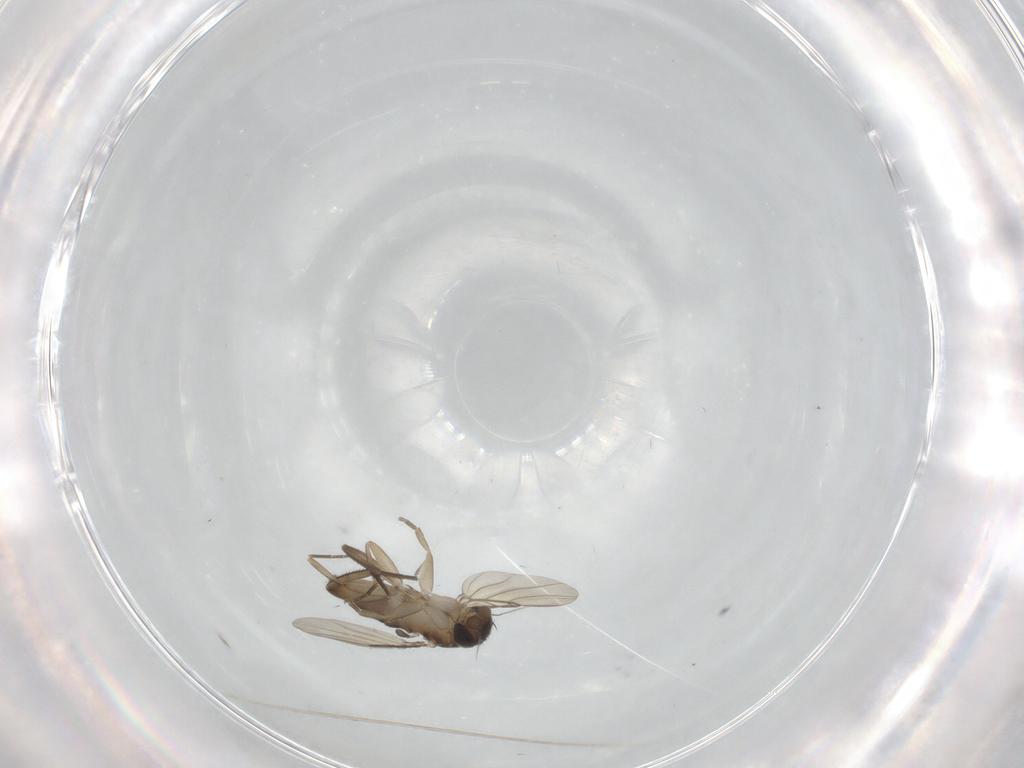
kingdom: Animalia
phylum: Arthropoda
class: Insecta
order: Diptera
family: Phoridae
